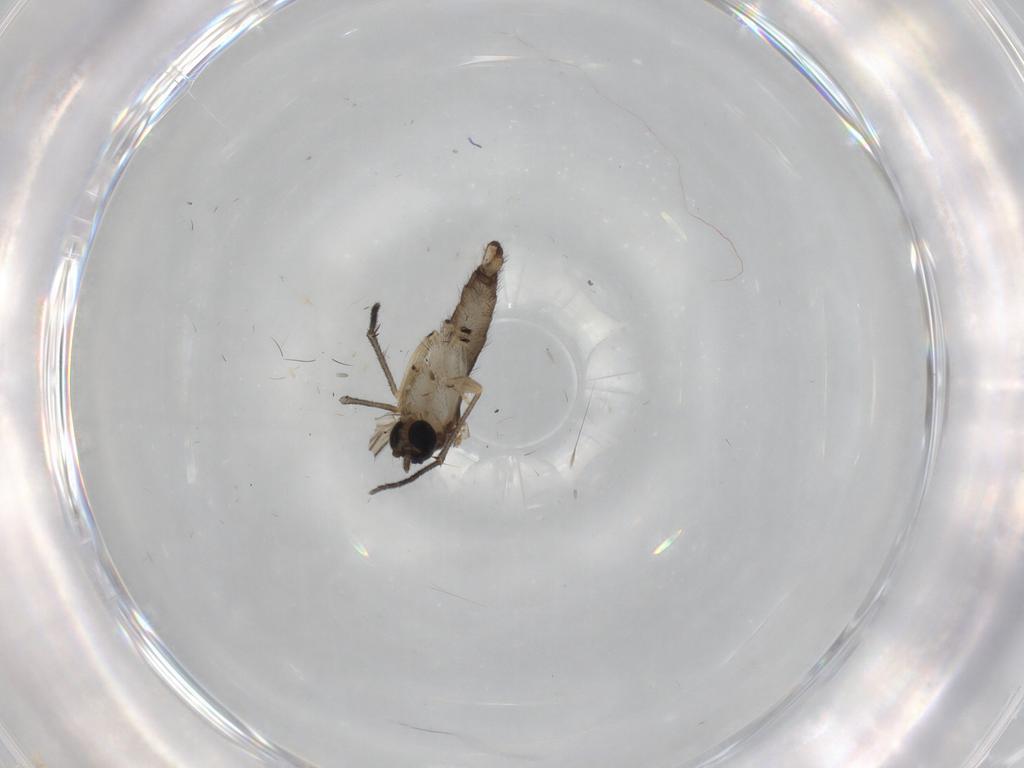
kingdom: Animalia
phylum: Arthropoda
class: Insecta
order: Diptera
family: Sciaridae
